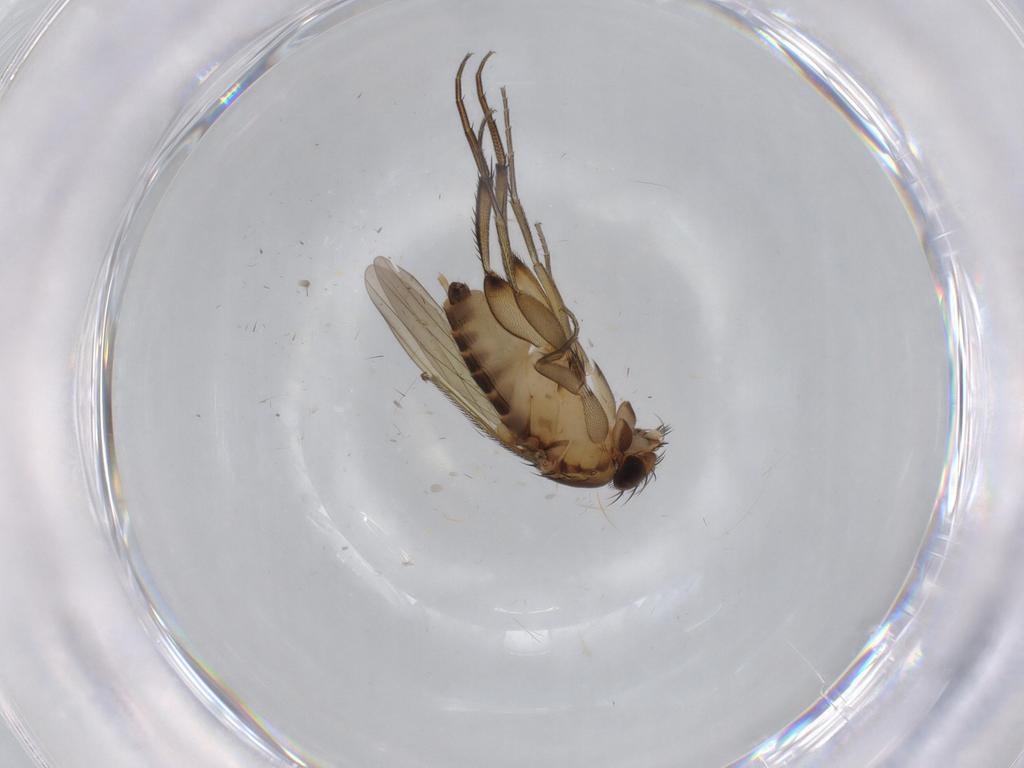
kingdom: Animalia
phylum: Arthropoda
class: Insecta
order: Diptera
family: Phoridae
